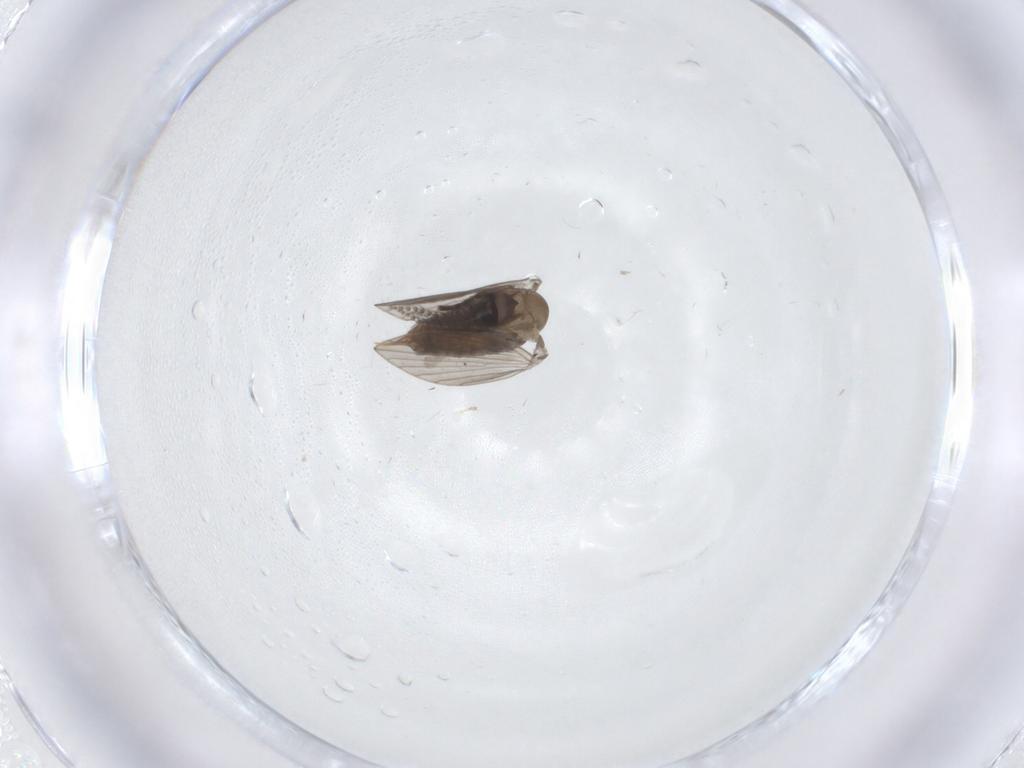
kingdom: Animalia
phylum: Arthropoda
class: Insecta
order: Diptera
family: Psychodidae
